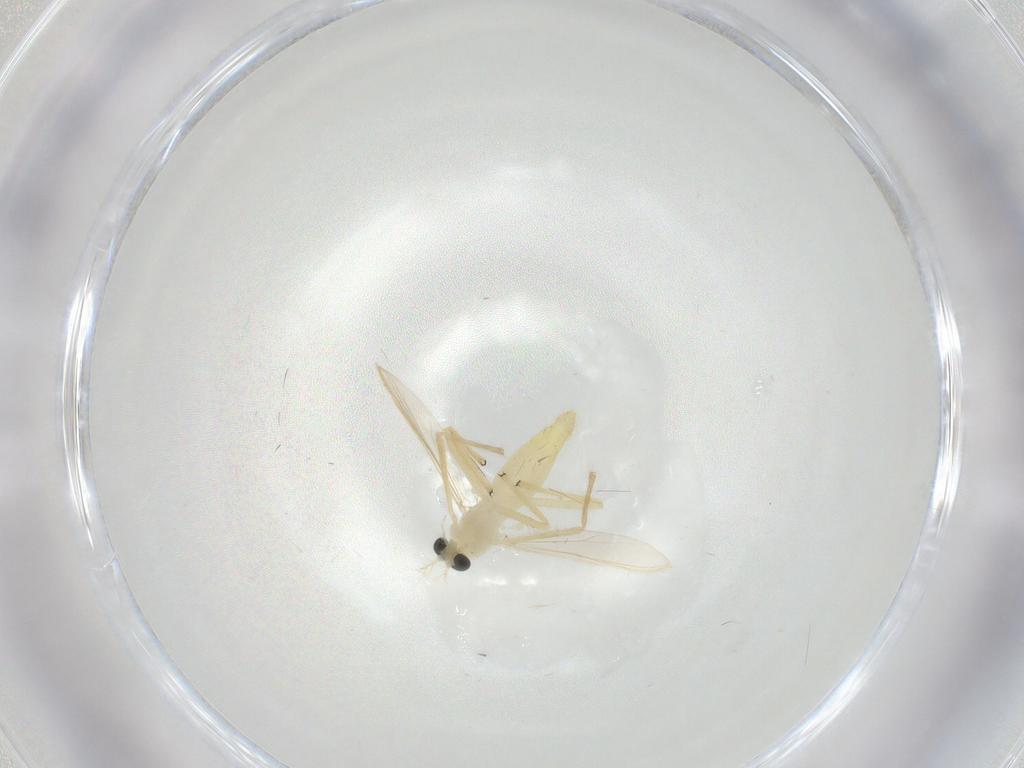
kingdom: Animalia
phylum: Arthropoda
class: Insecta
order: Diptera
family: Chironomidae
